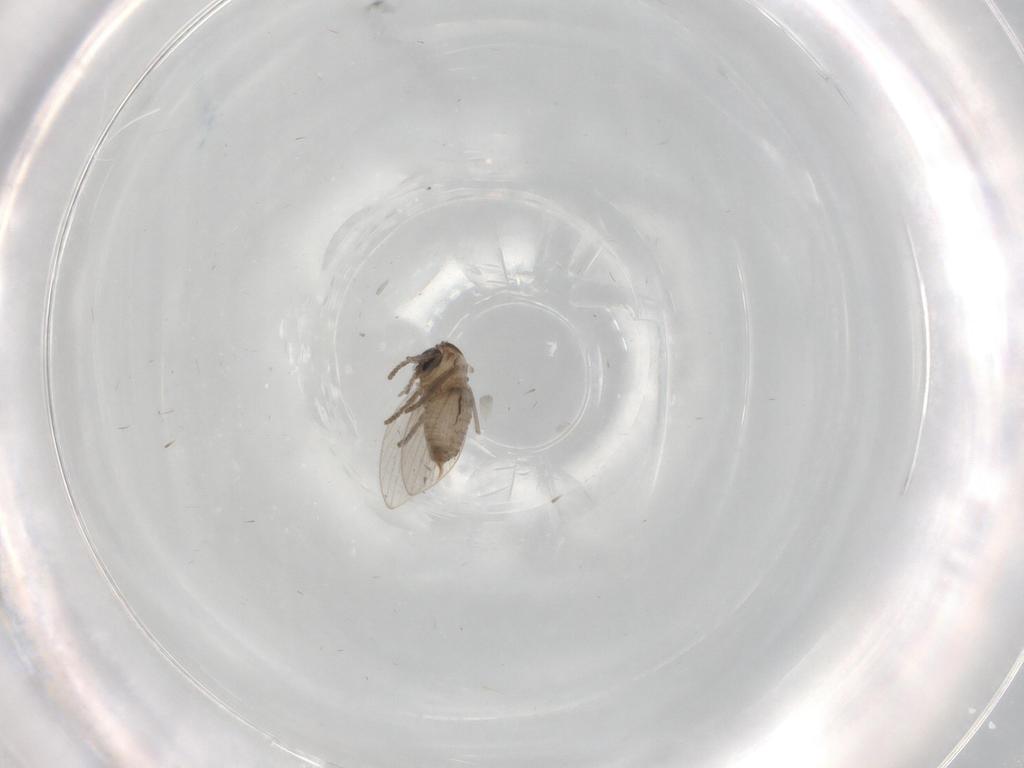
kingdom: Animalia
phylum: Arthropoda
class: Insecta
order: Diptera
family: Psychodidae
